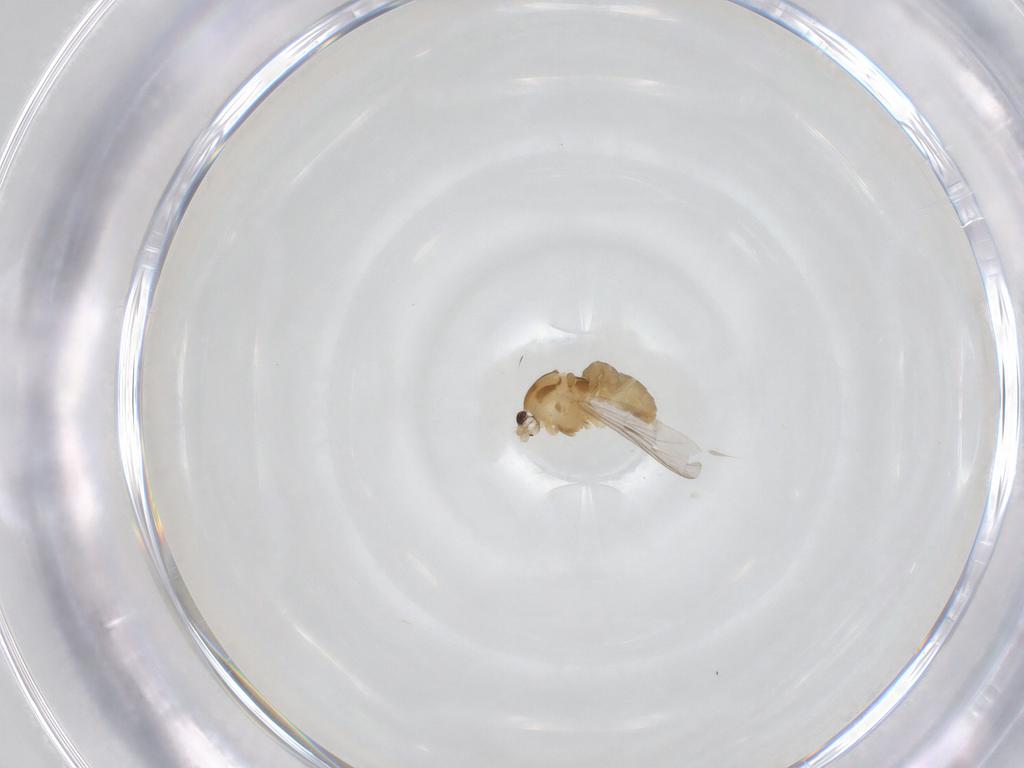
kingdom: Animalia
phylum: Arthropoda
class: Insecta
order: Diptera
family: Chironomidae
